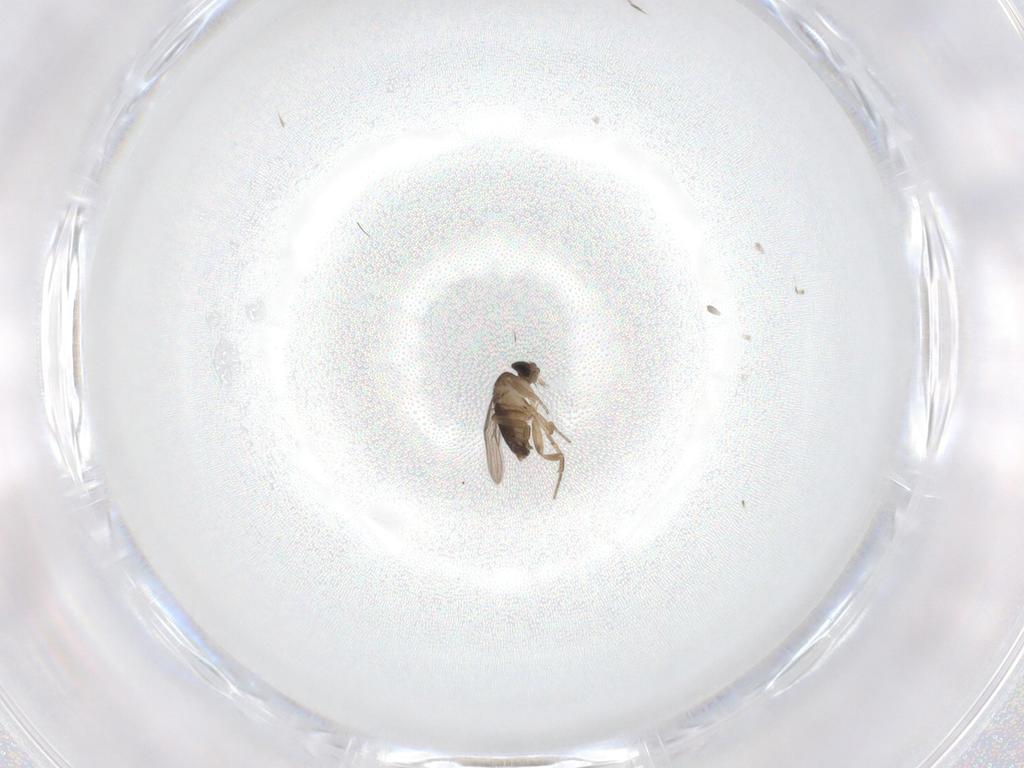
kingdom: Animalia
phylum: Arthropoda
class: Insecta
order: Diptera
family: Phoridae
